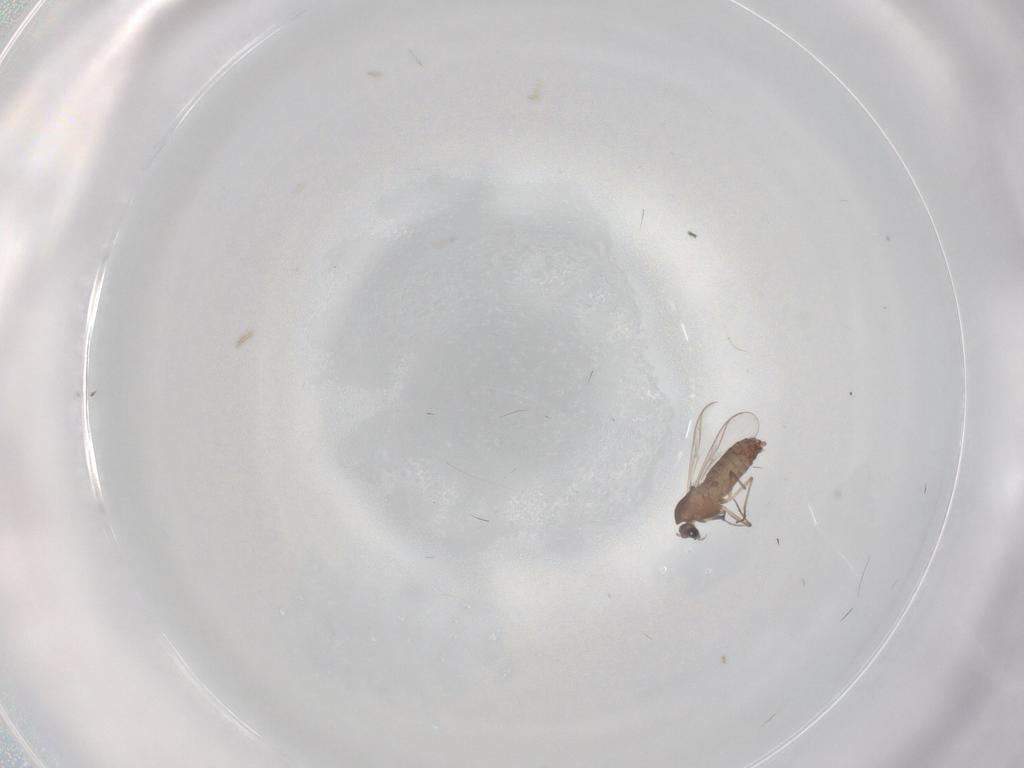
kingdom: Animalia
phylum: Arthropoda
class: Insecta
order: Diptera
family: Chironomidae
